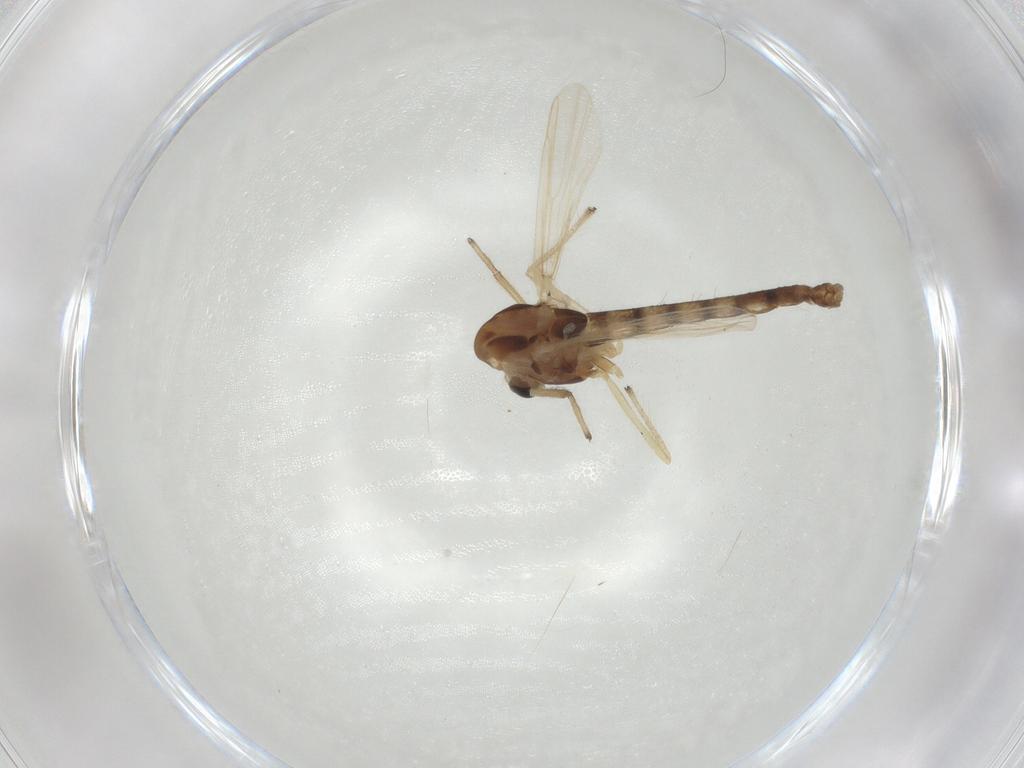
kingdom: Animalia
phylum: Arthropoda
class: Insecta
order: Diptera
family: Chironomidae
